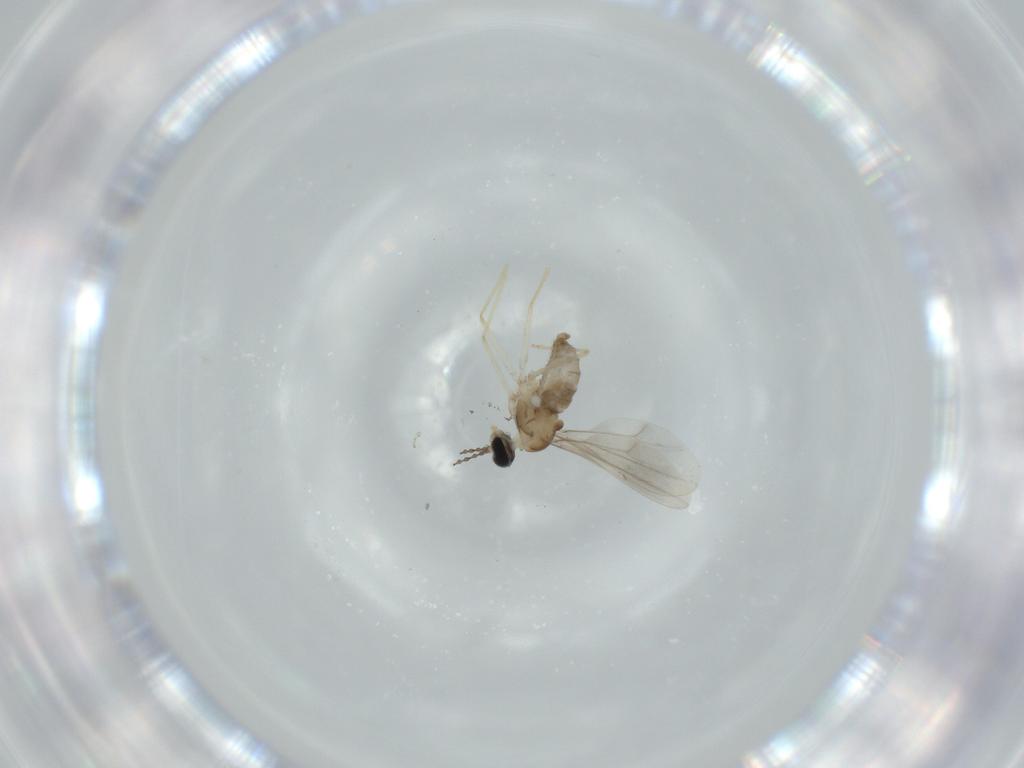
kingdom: Animalia
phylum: Arthropoda
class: Insecta
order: Diptera
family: Cecidomyiidae
